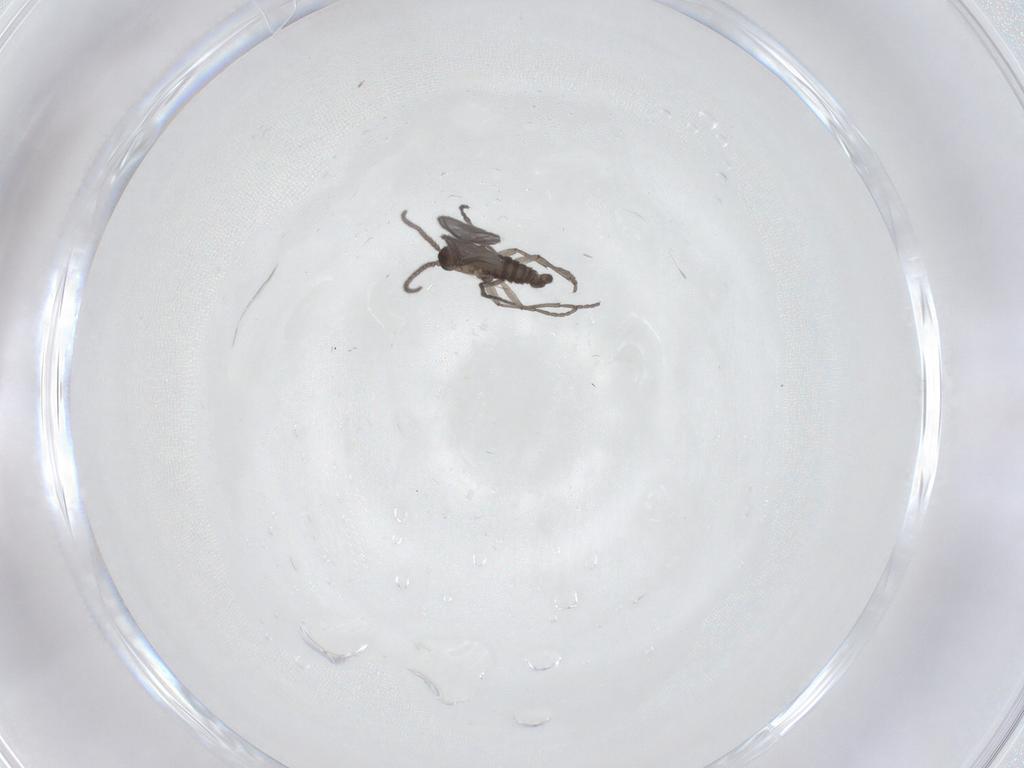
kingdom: Animalia
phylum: Arthropoda
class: Insecta
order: Diptera
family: Sciaridae
